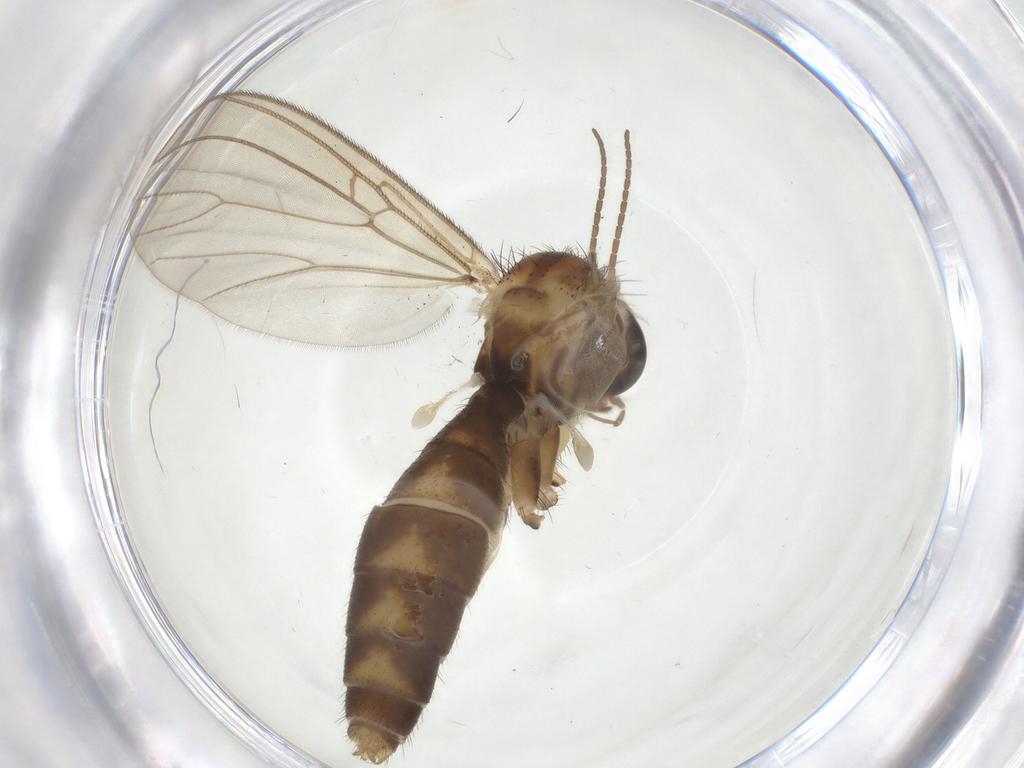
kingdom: Animalia
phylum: Arthropoda
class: Insecta
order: Diptera
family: Mycetophilidae
